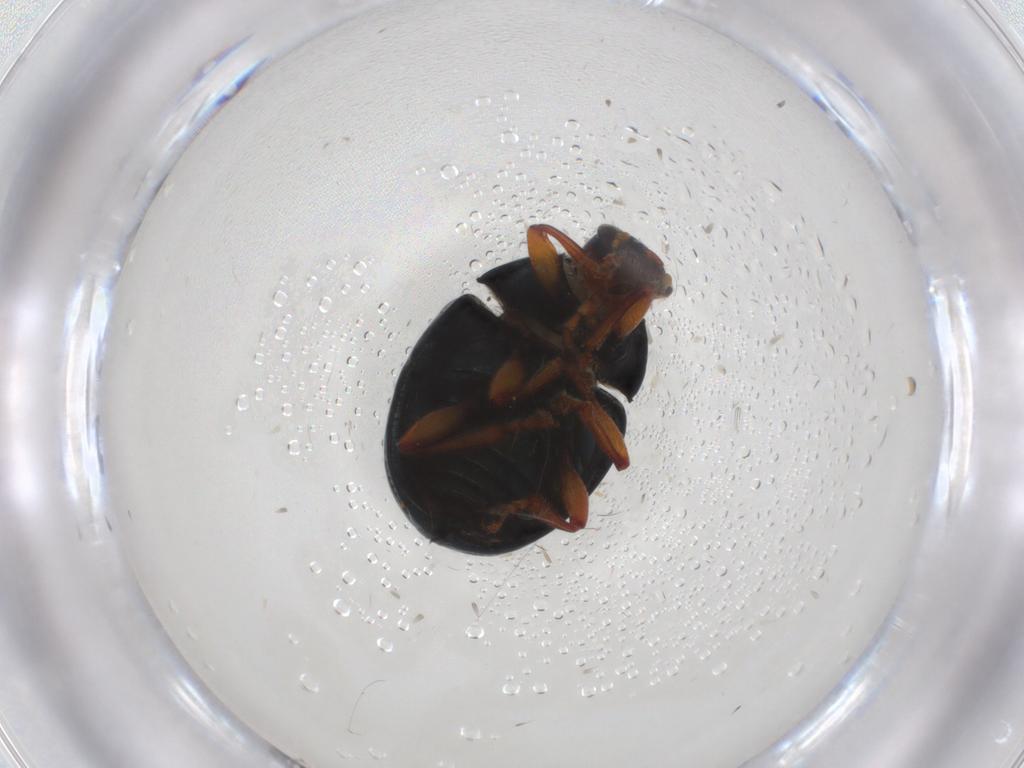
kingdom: Animalia
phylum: Arthropoda
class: Insecta
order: Coleoptera
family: Chrysomelidae
